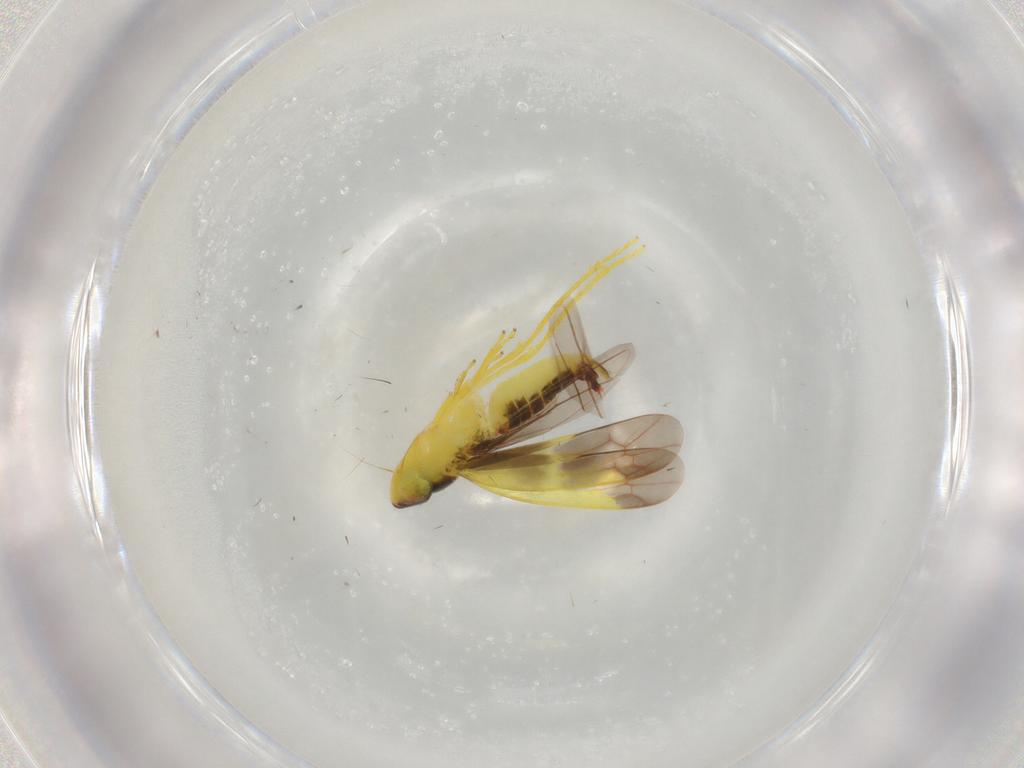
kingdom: Animalia
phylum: Arthropoda
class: Insecta
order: Hemiptera
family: Cicadellidae
